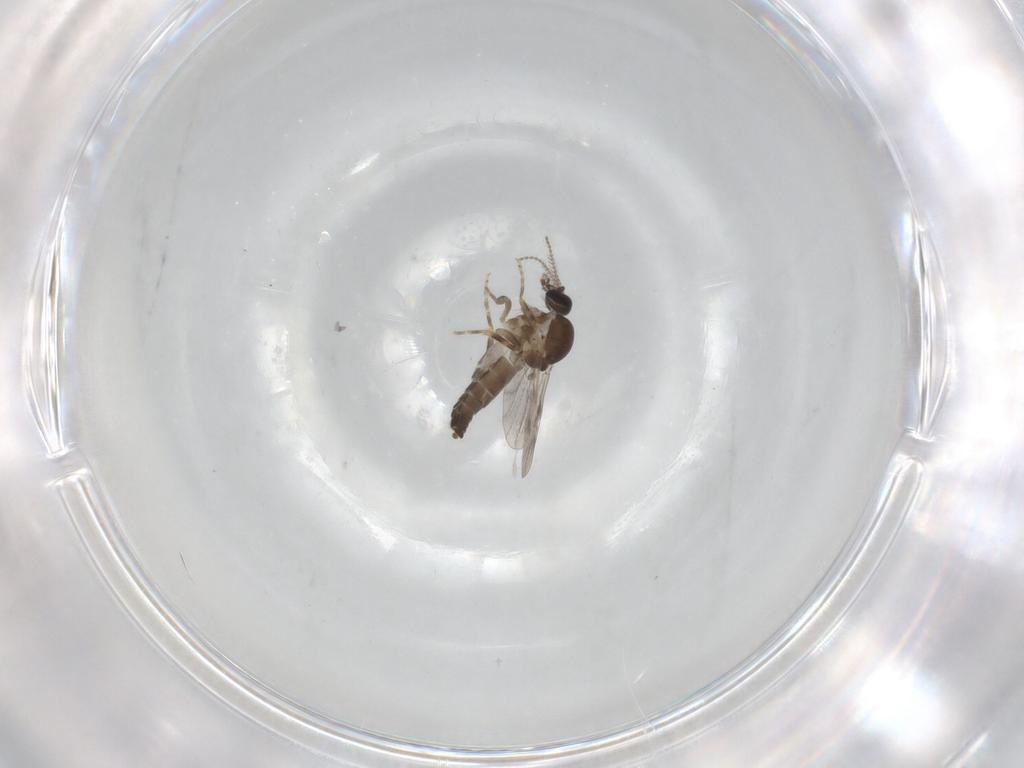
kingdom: Animalia
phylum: Arthropoda
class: Insecta
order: Diptera
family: Ceratopogonidae
